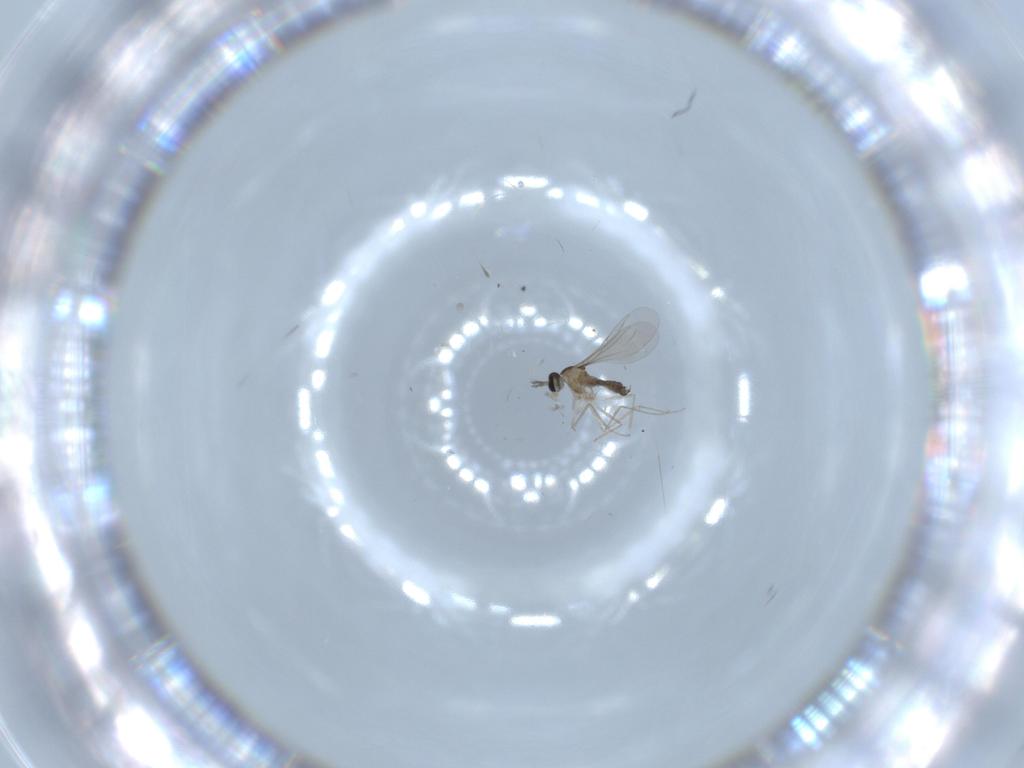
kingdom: Animalia
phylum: Arthropoda
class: Insecta
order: Diptera
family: Cecidomyiidae
